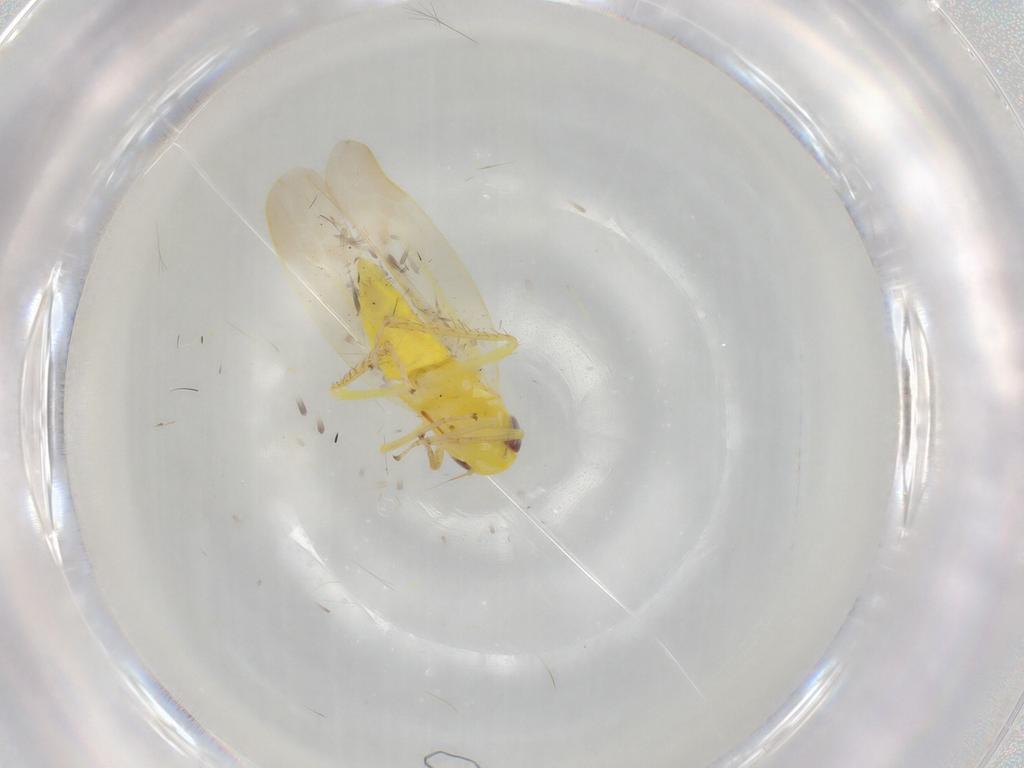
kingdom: Animalia
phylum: Arthropoda
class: Insecta
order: Hemiptera
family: Cicadellidae
